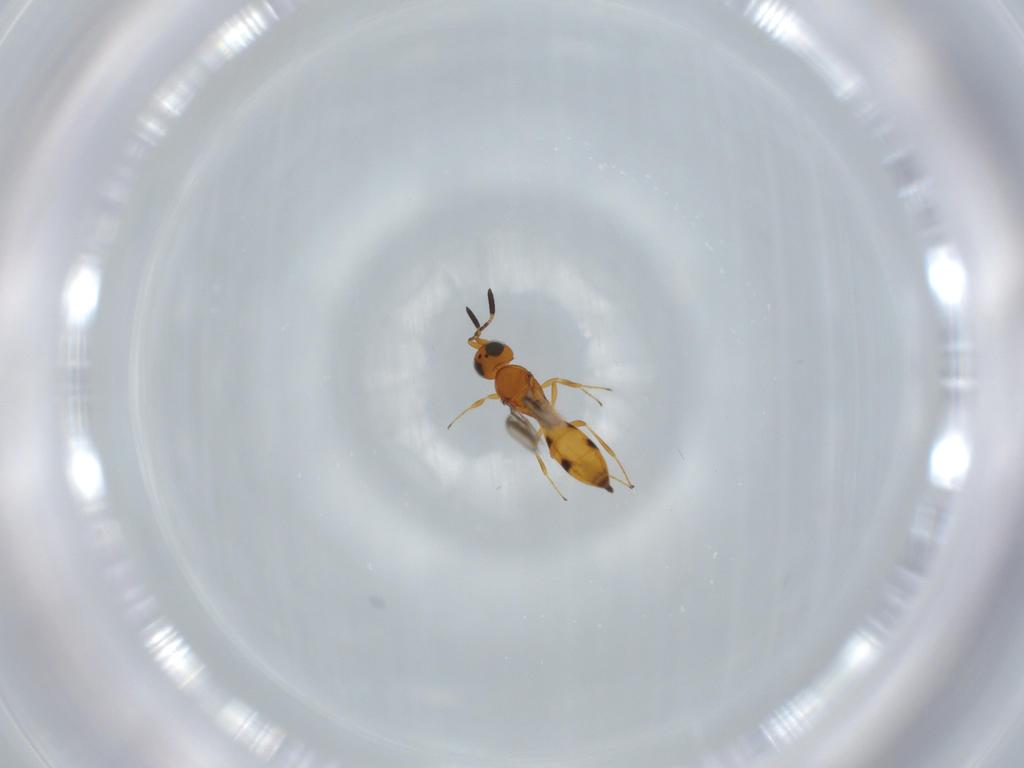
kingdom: Animalia
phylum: Arthropoda
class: Insecta
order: Hymenoptera
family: Scelionidae
